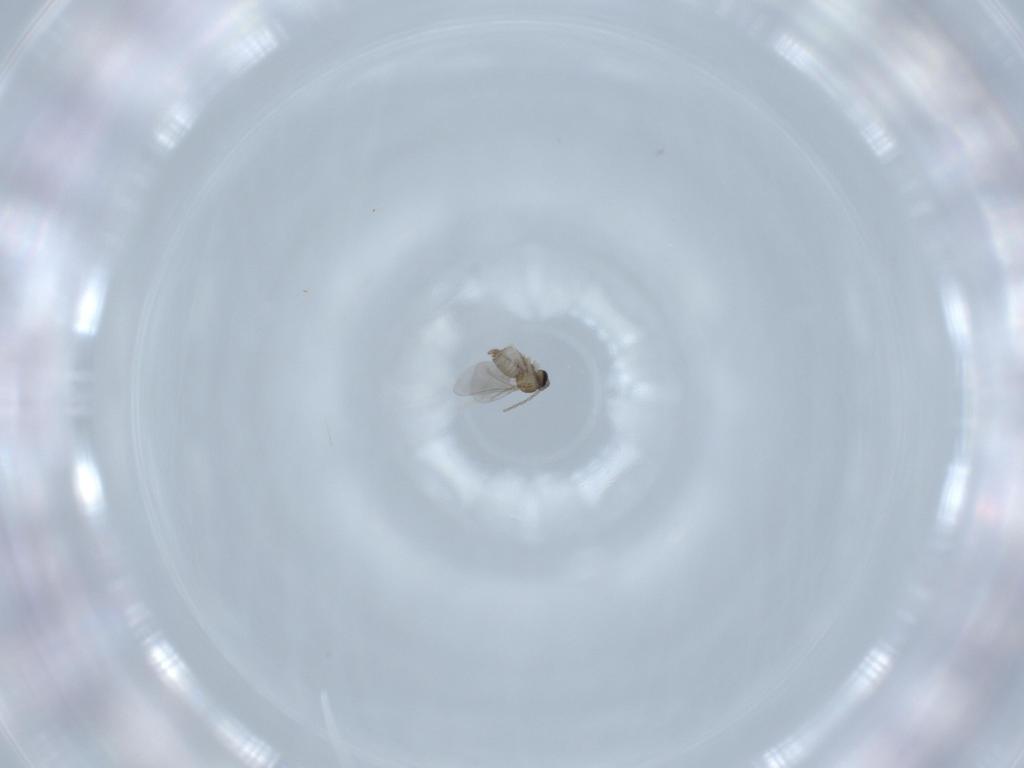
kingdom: Animalia
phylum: Arthropoda
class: Insecta
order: Diptera
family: Cecidomyiidae
